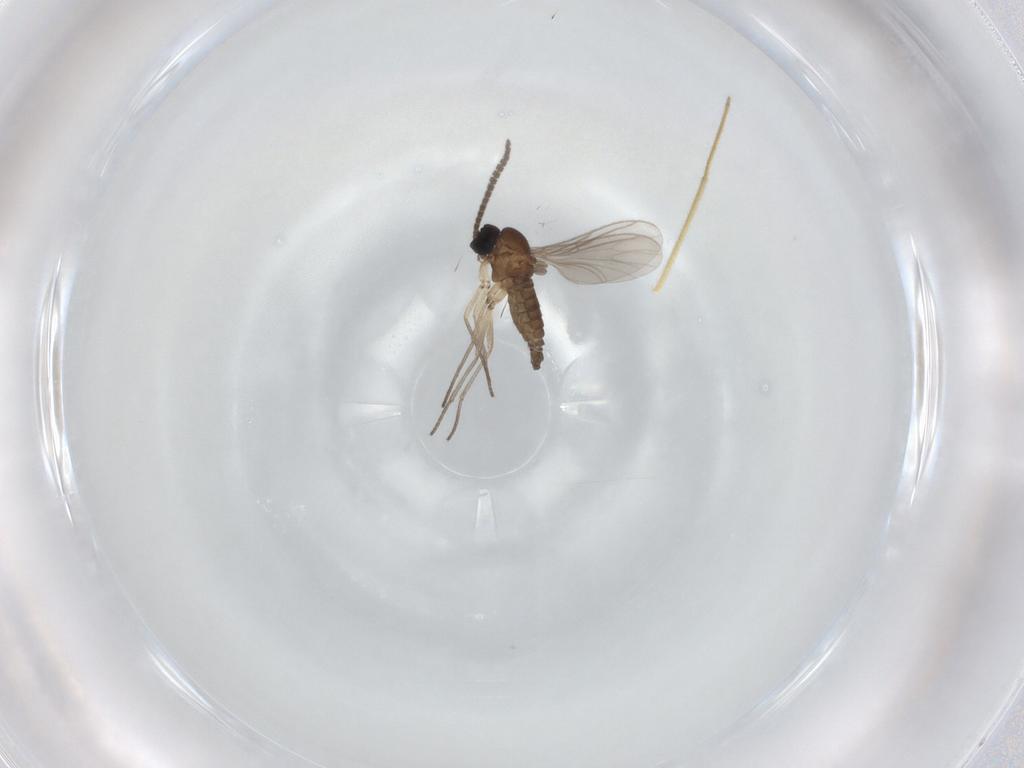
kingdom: Animalia
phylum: Arthropoda
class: Insecta
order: Diptera
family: Sciaridae
